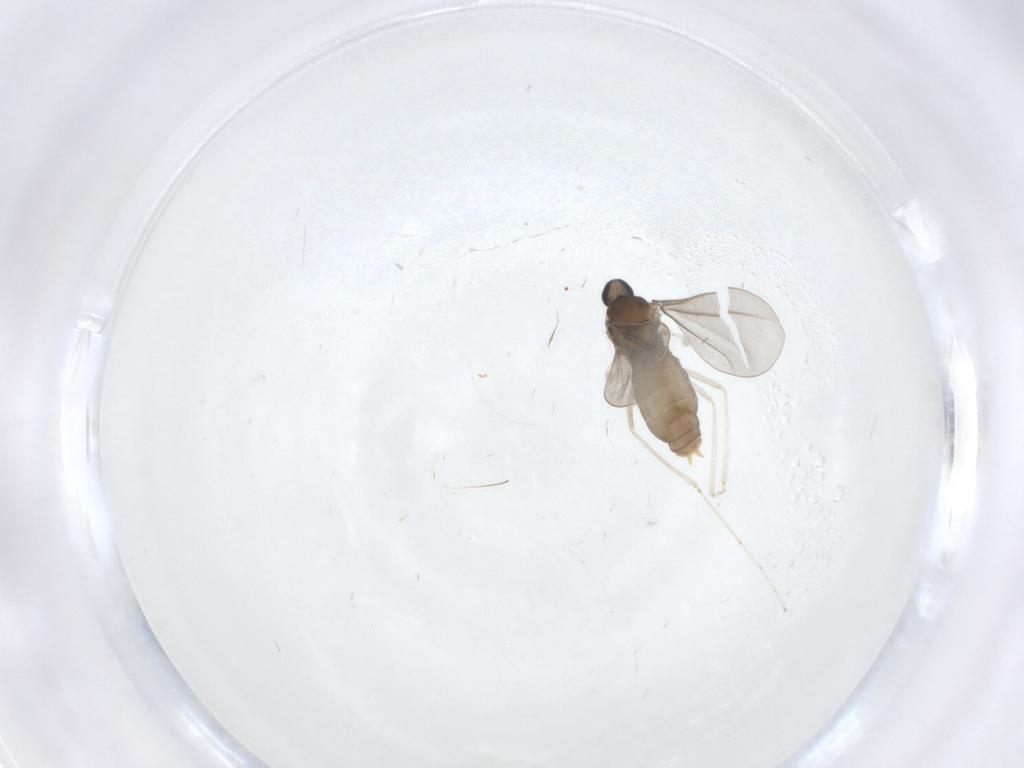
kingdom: Animalia
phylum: Arthropoda
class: Insecta
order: Diptera
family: Cecidomyiidae
